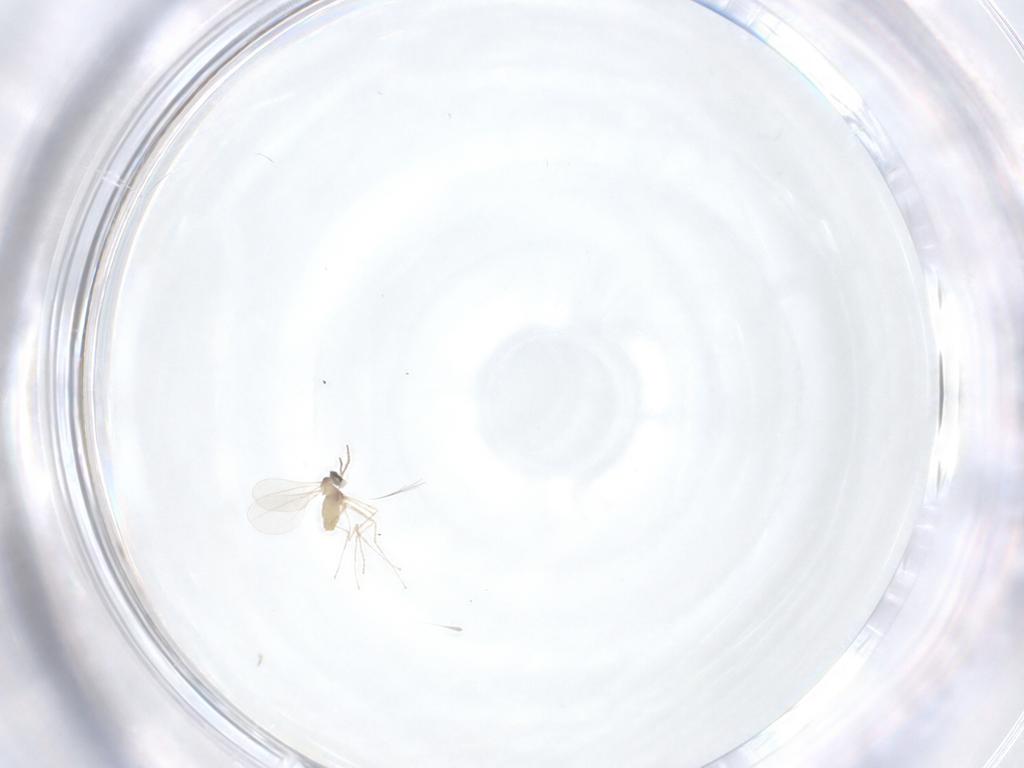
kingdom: Animalia
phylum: Arthropoda
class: Insecta
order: Diptera
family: Cecidomyiidae
